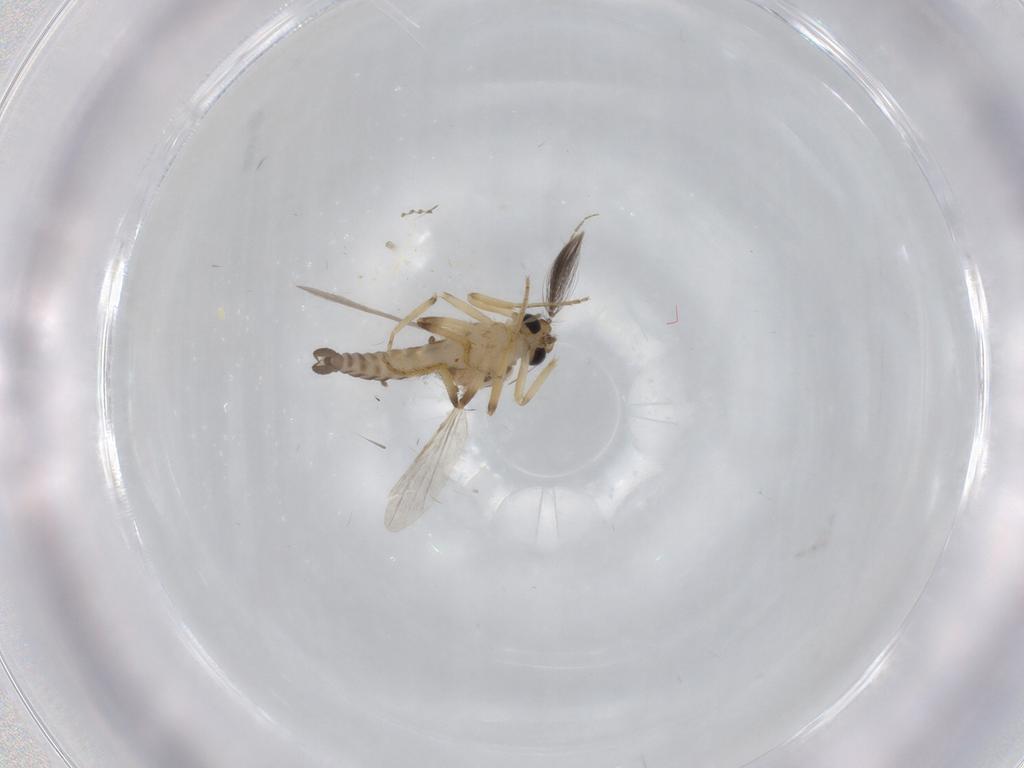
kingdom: Animalia
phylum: Arthropoda
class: Insecta
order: Diptera
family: Ceratopogonidae
